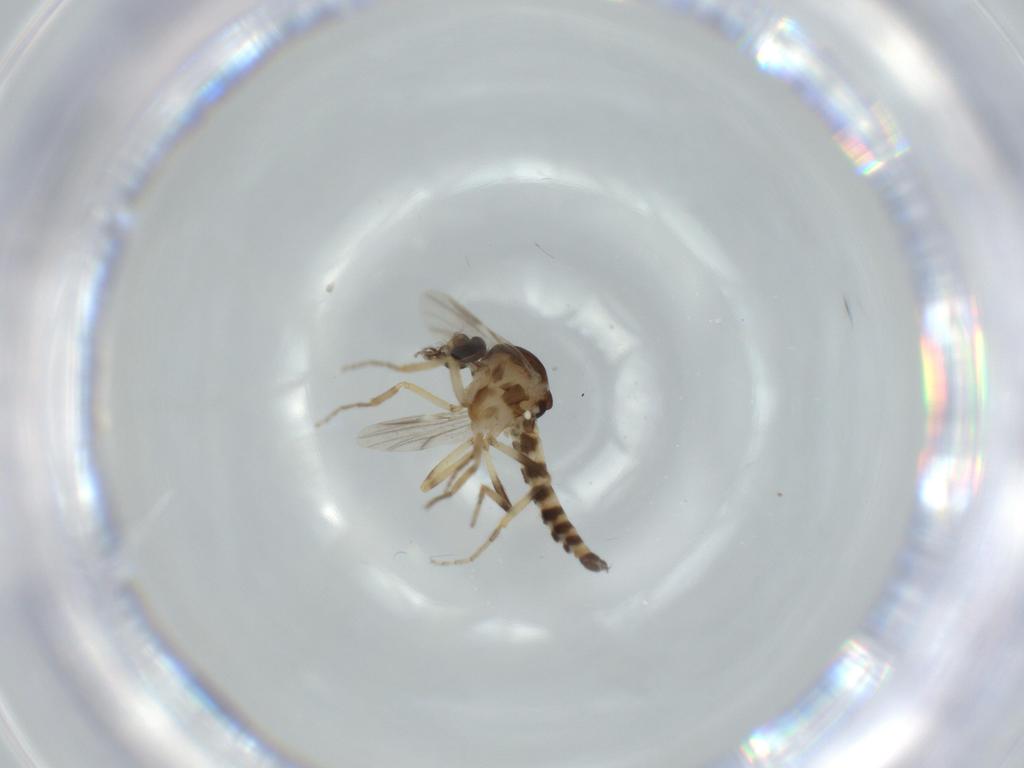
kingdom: Animalia
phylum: Arthropoda
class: Insecta
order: Diptera
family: Ceratopogonidae
